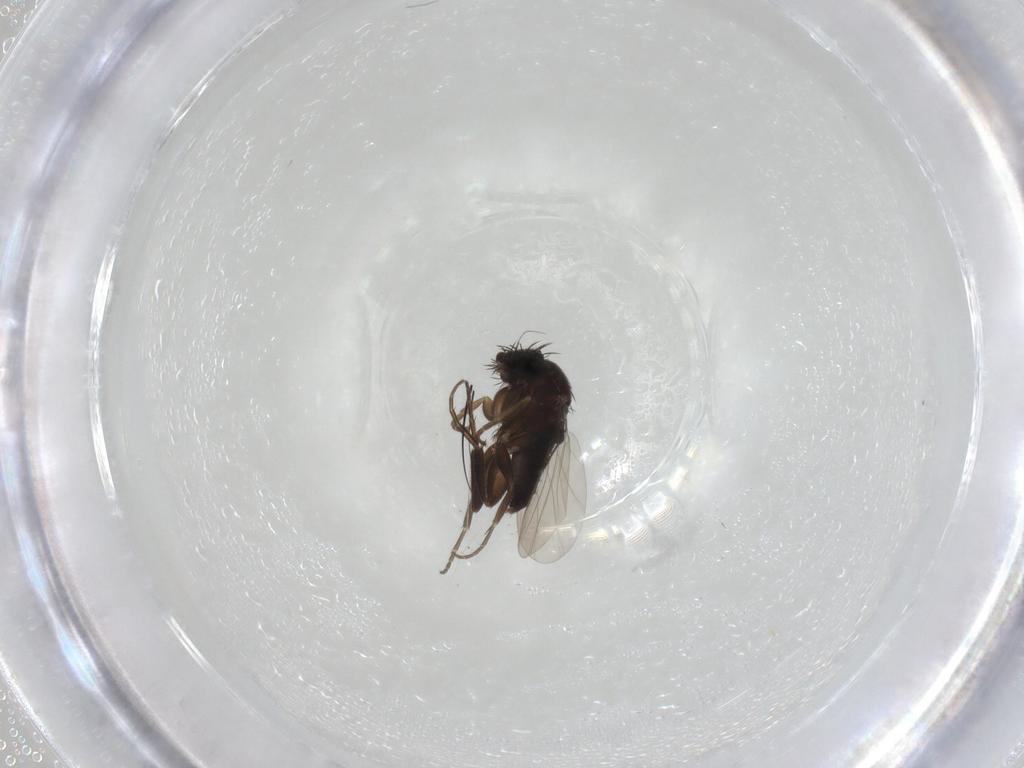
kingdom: Animalia
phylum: Arthropoda
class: Insecta
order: Diptera
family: Phoridae
